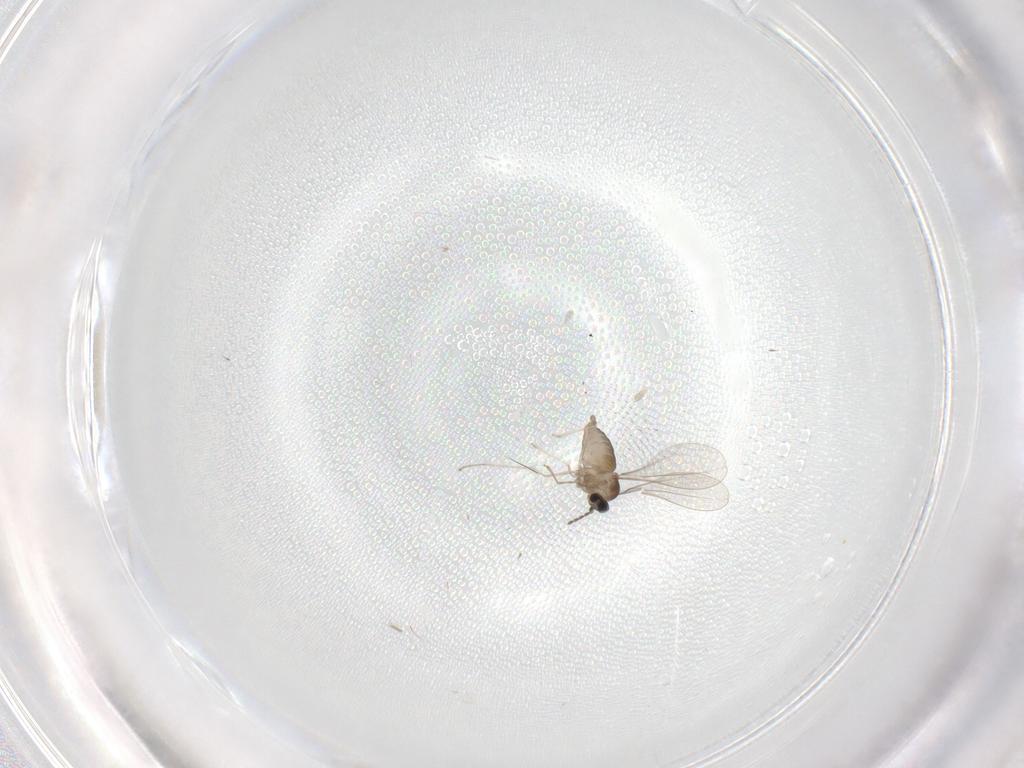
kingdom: Animalia
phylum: Arthropoda
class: Insecta
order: Diptera
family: Cecidomyiidae
